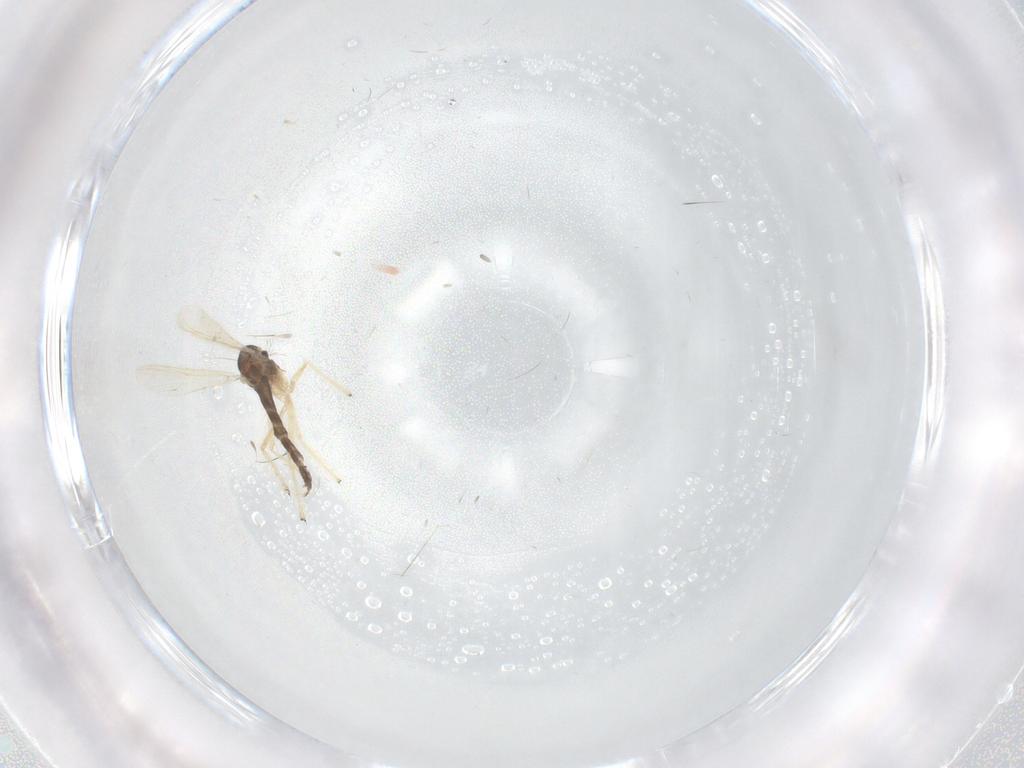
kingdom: Animalia
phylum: Arthropoda
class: Insecta
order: Diptera
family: Chironomidae
